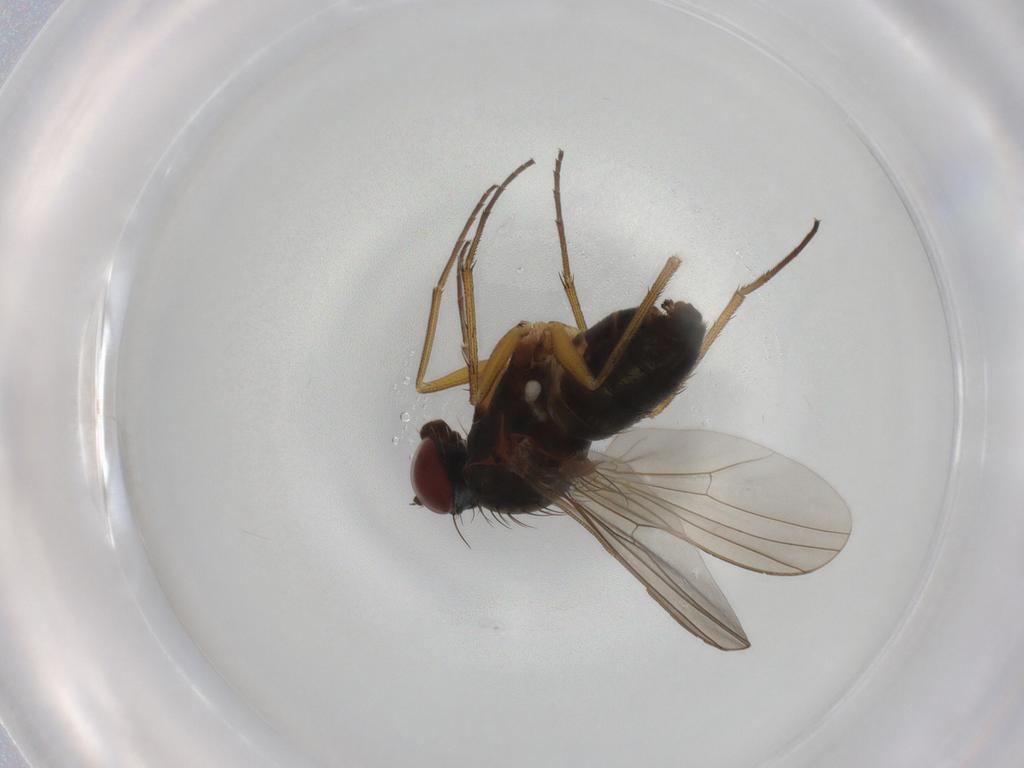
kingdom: Animalia
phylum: Arthropoda
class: Insecta
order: Diptera
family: Dolichopodidae
